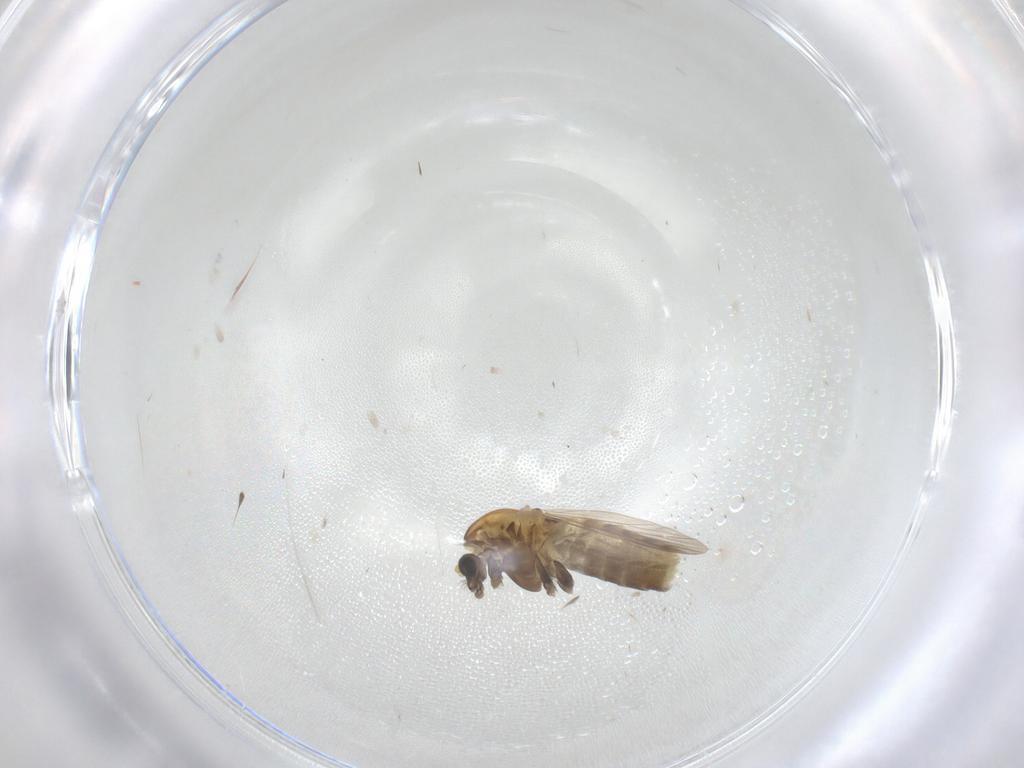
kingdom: Animalia
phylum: Arthropoda
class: Insecta
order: Diptera
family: Chironomidae
